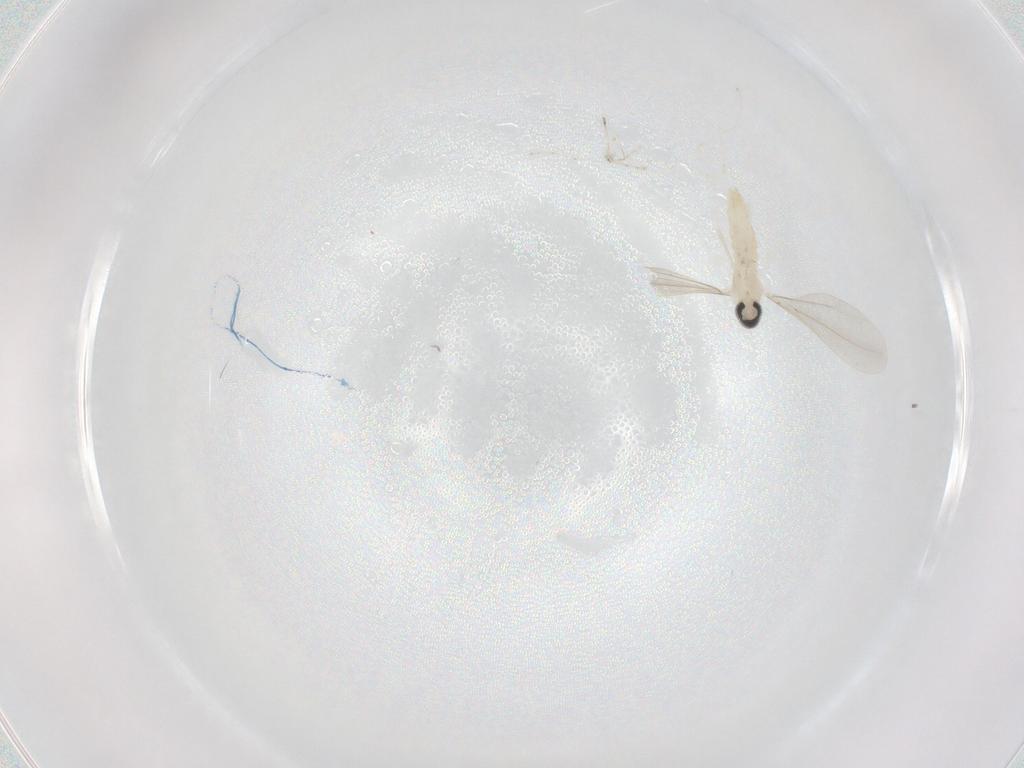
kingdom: Animalia
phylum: Arthropoda
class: Insecta
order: Diptera
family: Cecidomyiidae
